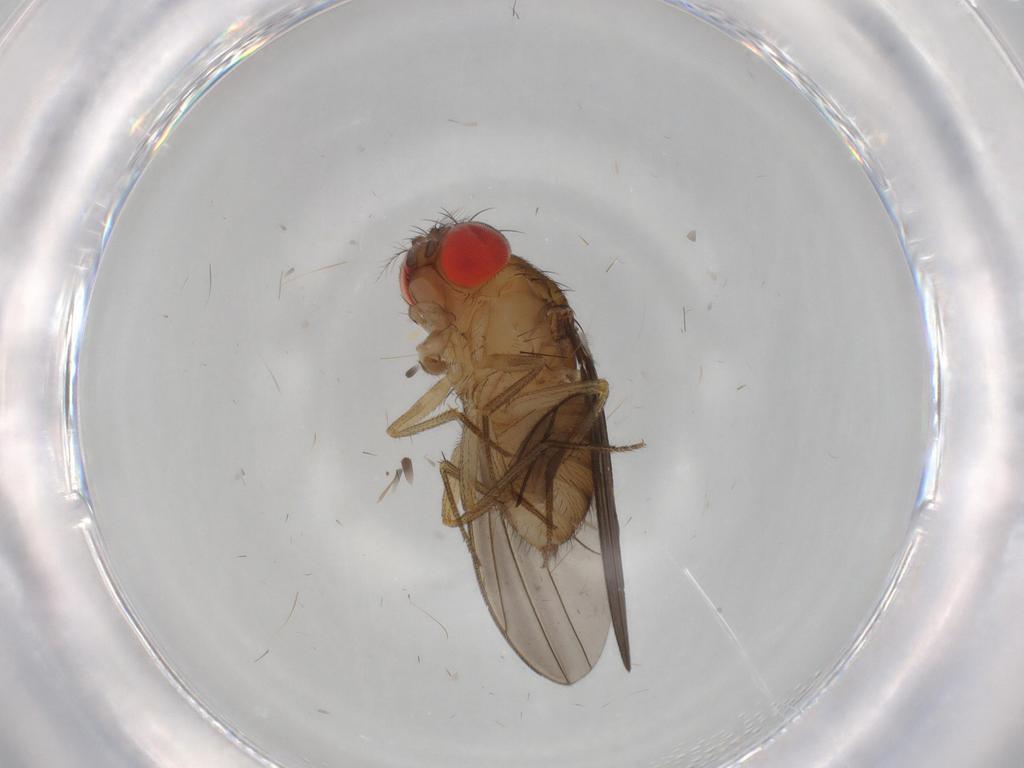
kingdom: Animalia
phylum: Arthropoda
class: Insecta
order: Diptera
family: Drosophilidae
